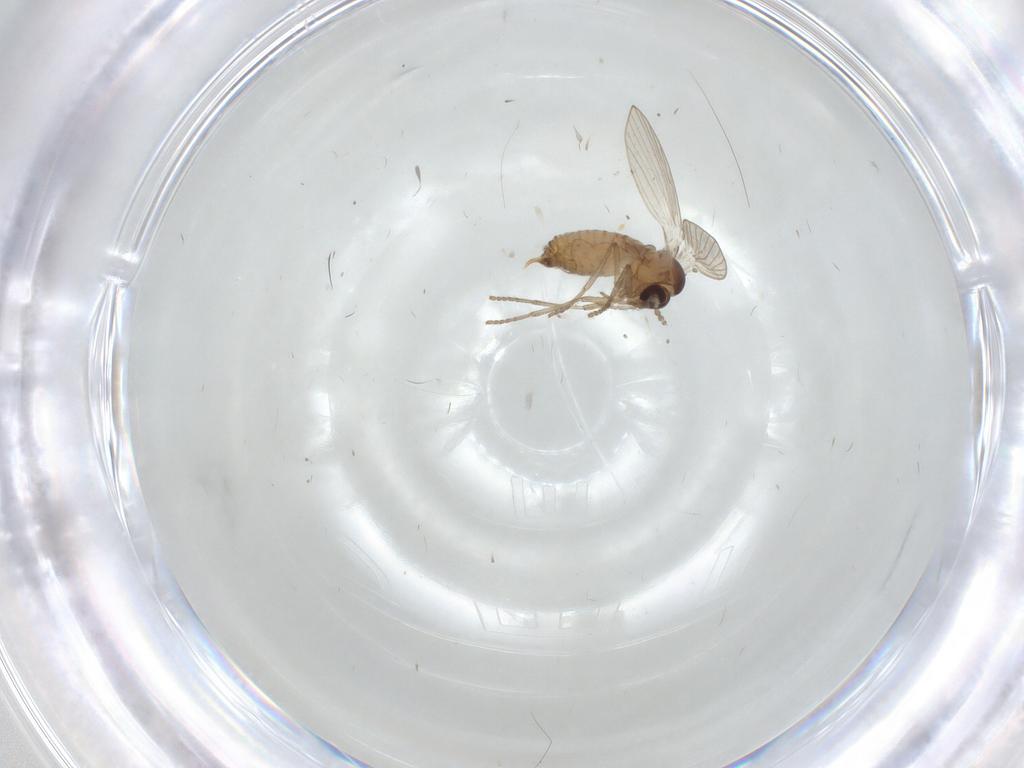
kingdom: Animalia
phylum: Arthropoda
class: Insecta
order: Diptera
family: Psychodidae
